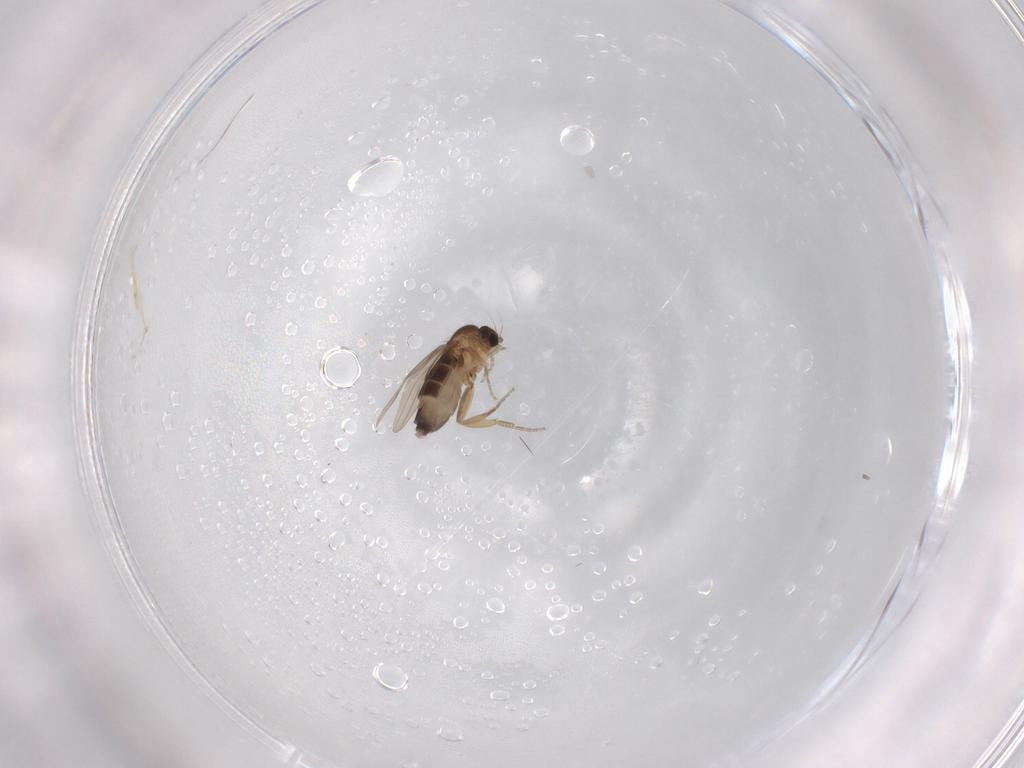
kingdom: Animalia
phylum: Arthropoda
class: Insecta
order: Diptera
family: Phoridae
